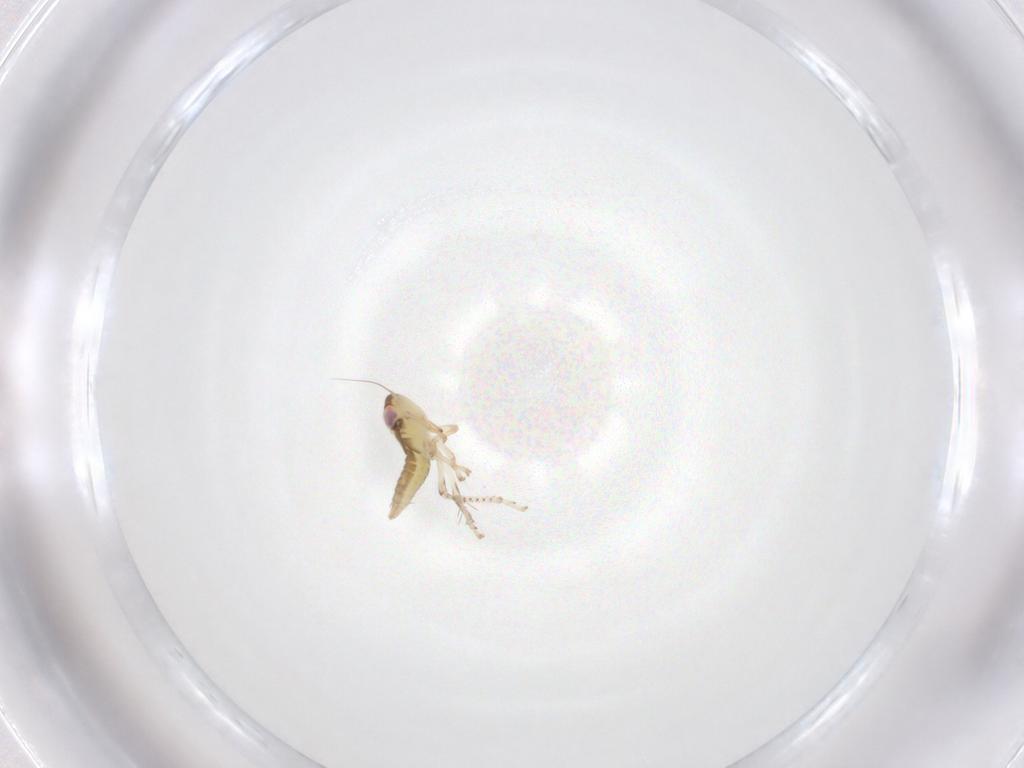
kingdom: Animalia
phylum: Arthropoda
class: Insecta
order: Hemiptera
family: Cicadellidae
